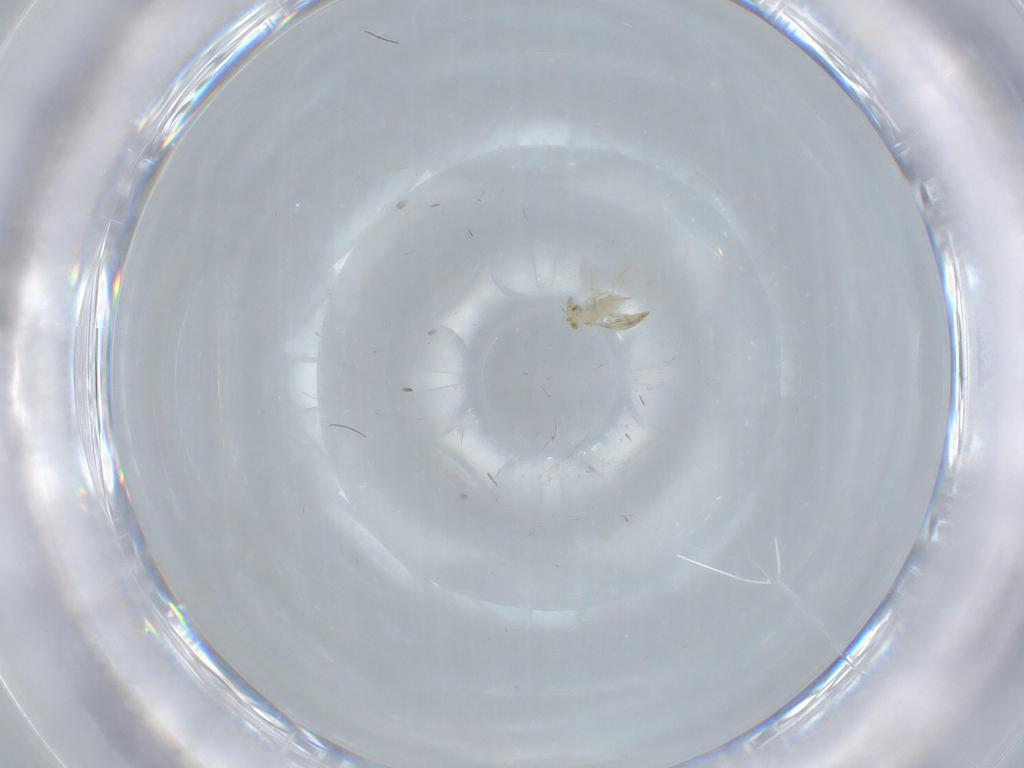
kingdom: Animalia
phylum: Arthropoda
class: Insecta
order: Hymenoptera
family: Aphelinidae
